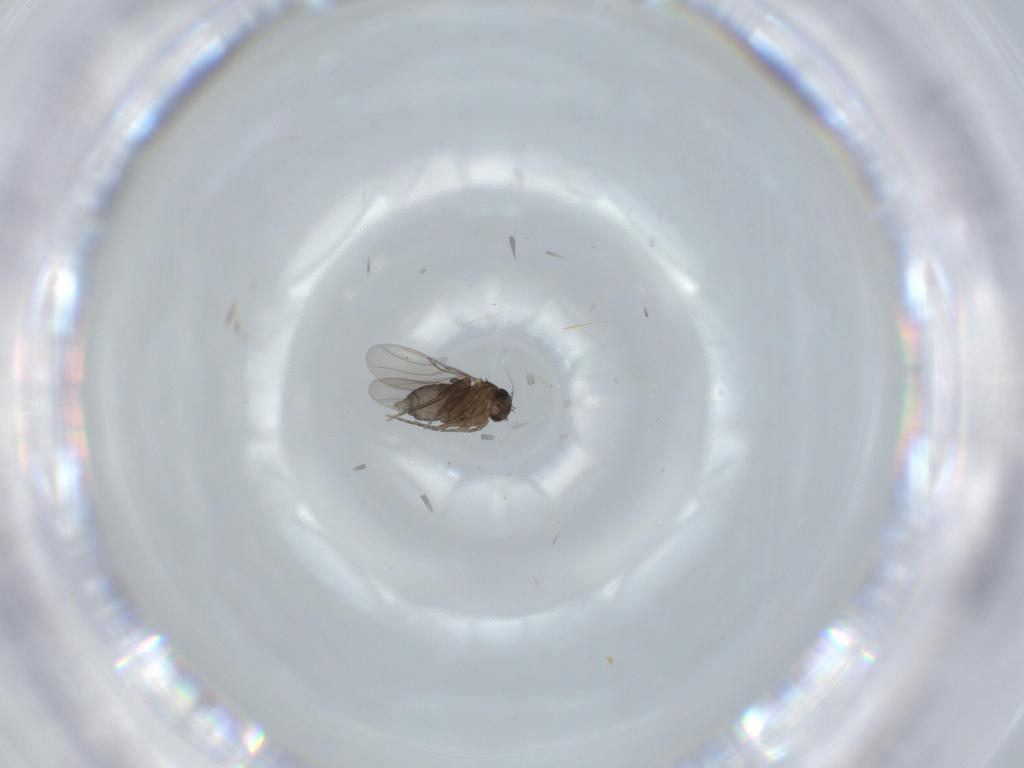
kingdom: Animalia
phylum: Arthropoda
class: Insecta
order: Diptera
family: Phoridae
